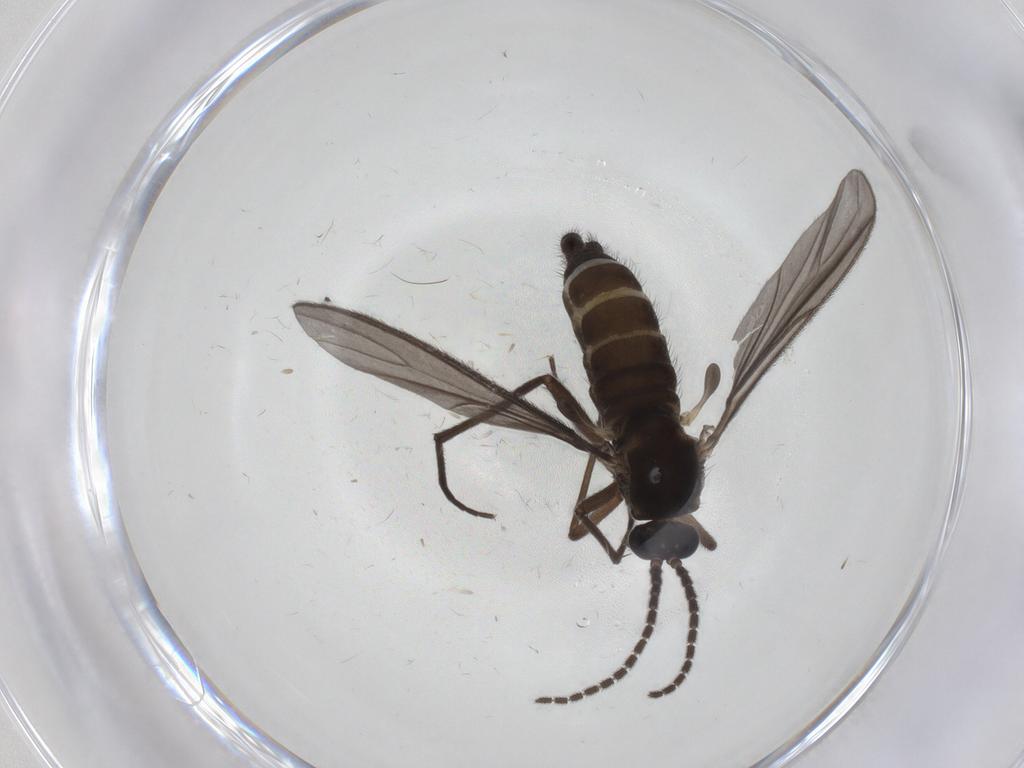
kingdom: Animalia
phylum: Arthropoda
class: Insecta
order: Diptera
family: Sciaridae
